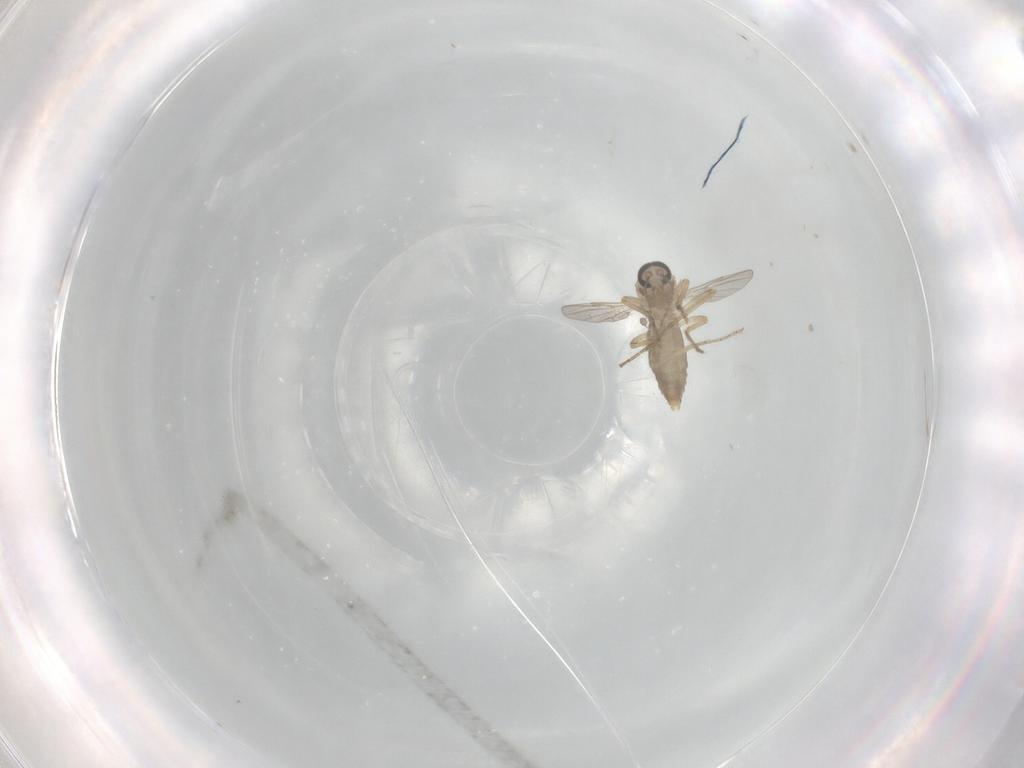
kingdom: Animalia
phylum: Arthropoda
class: Insecta
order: Diptera
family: Ceratopogonidae
